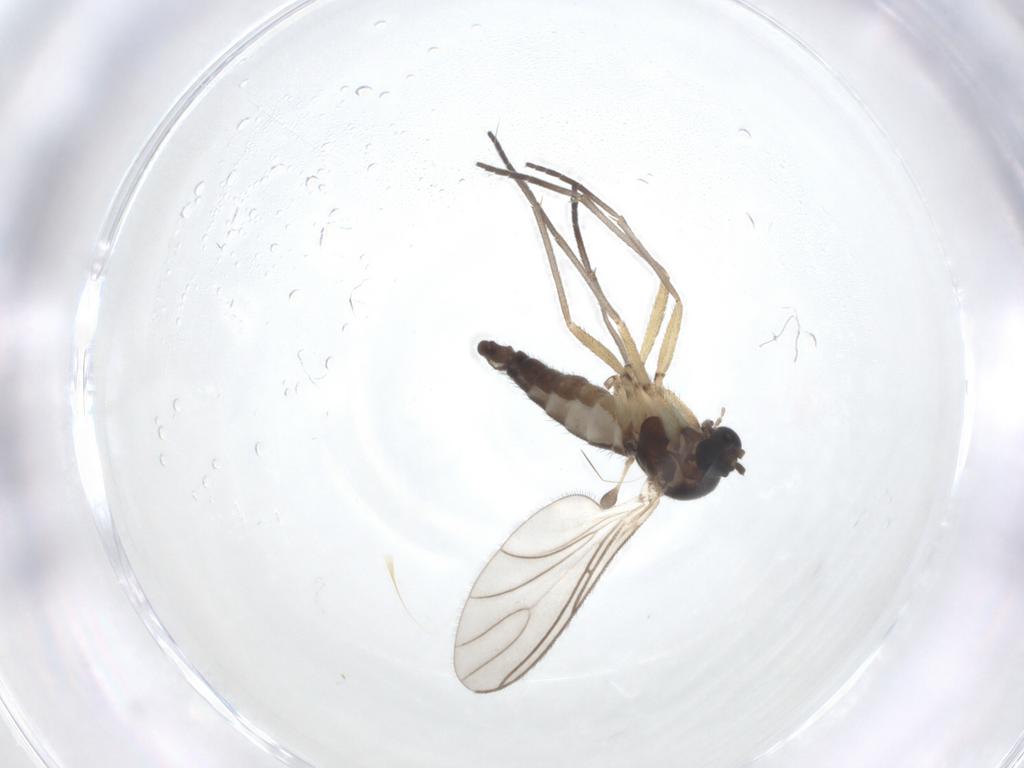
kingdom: Animalia
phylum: Arthropoda
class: Insecta
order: Diptera
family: Sciaridae
